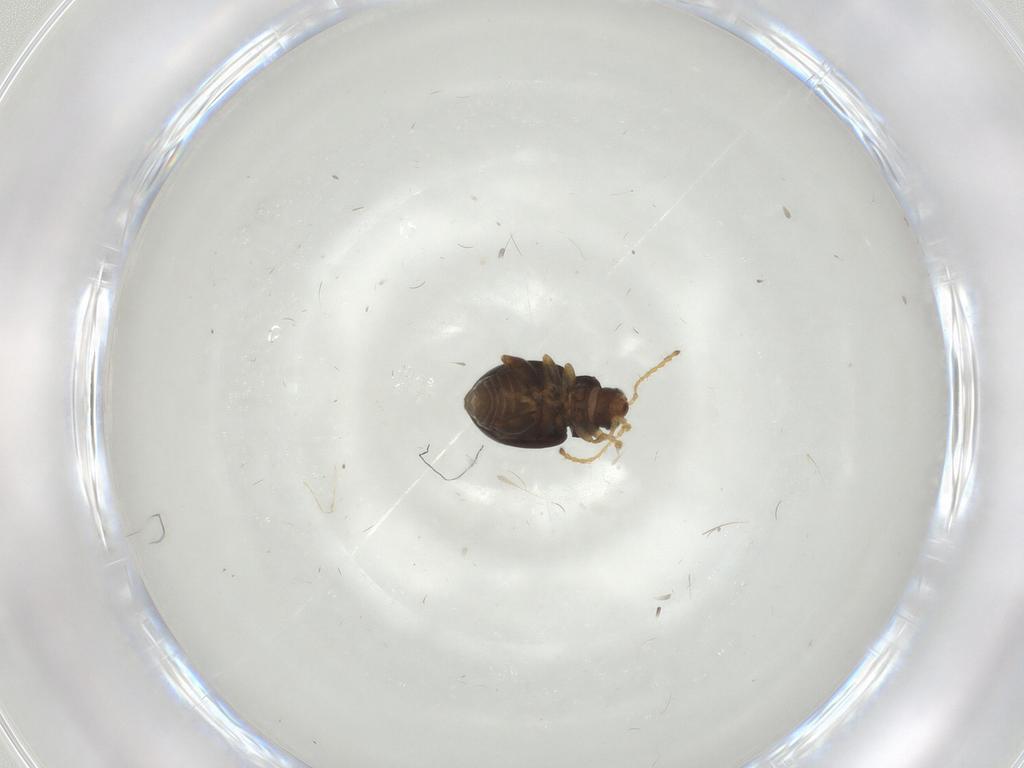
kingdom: Animalia
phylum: Arthropoda
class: Insecta
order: Coleoptera
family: Chrysomelidae
